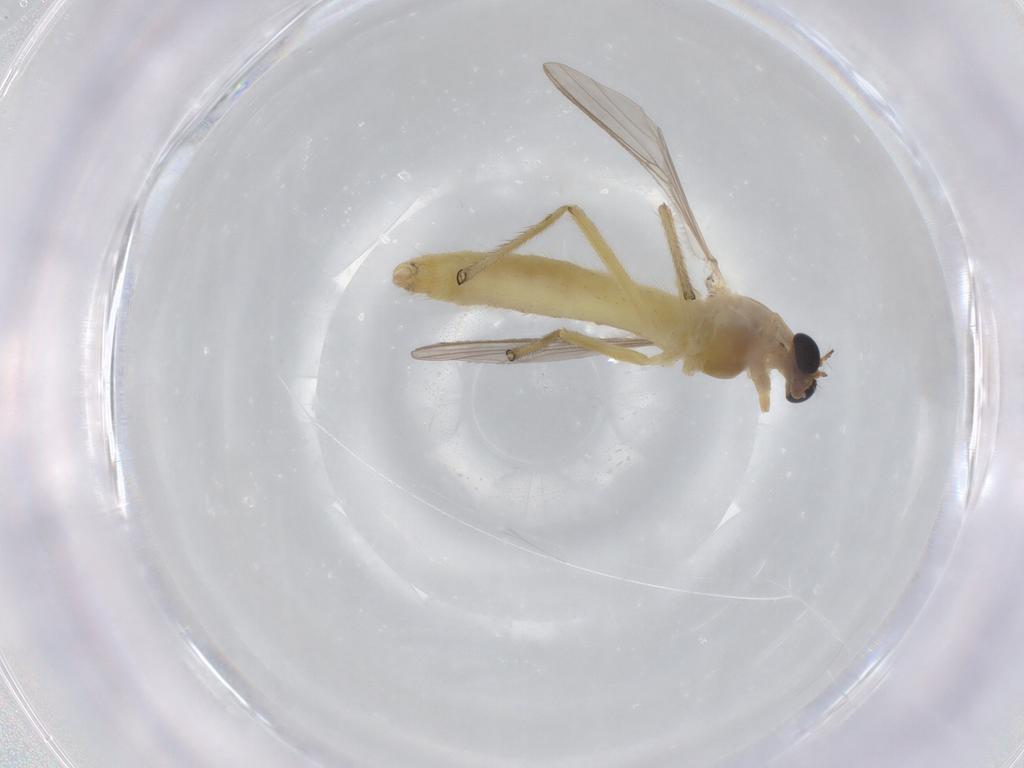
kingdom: Animalia
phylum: Arthropoda
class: Insecta
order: Diptera
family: Chironomidae
